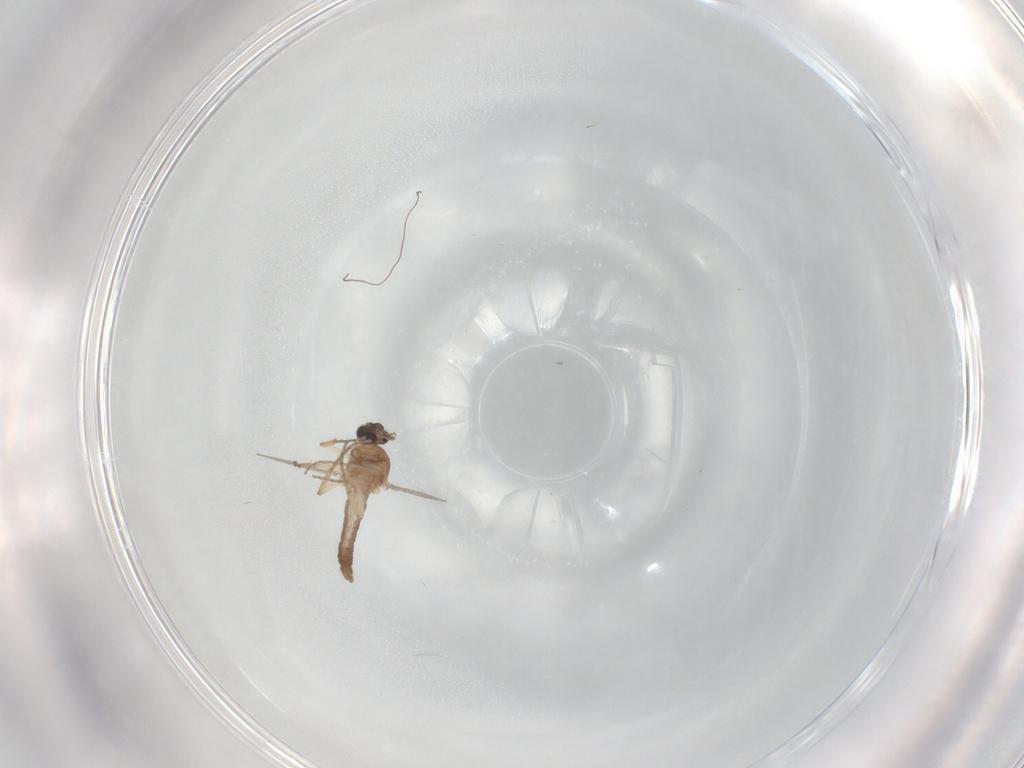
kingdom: Animalia
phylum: Arthropoda
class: Insecta
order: Diptera
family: Ceratopogonidae
